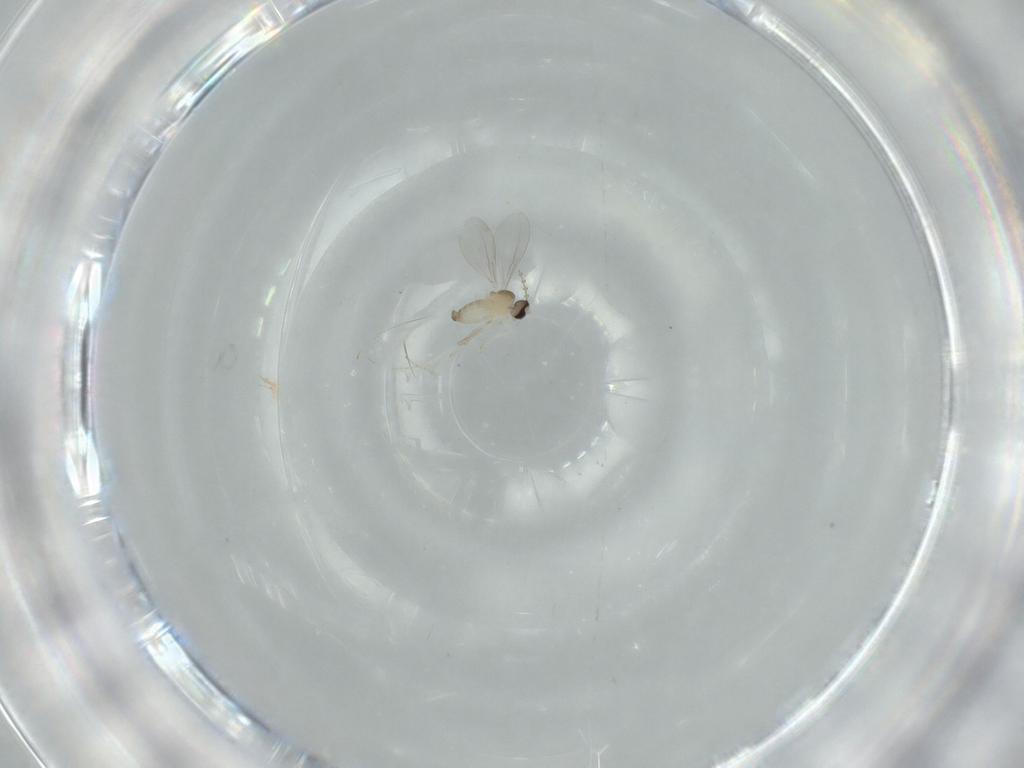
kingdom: Animalia
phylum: Arthropoda
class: Insecta
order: Diptera
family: Cecidomyiidae
